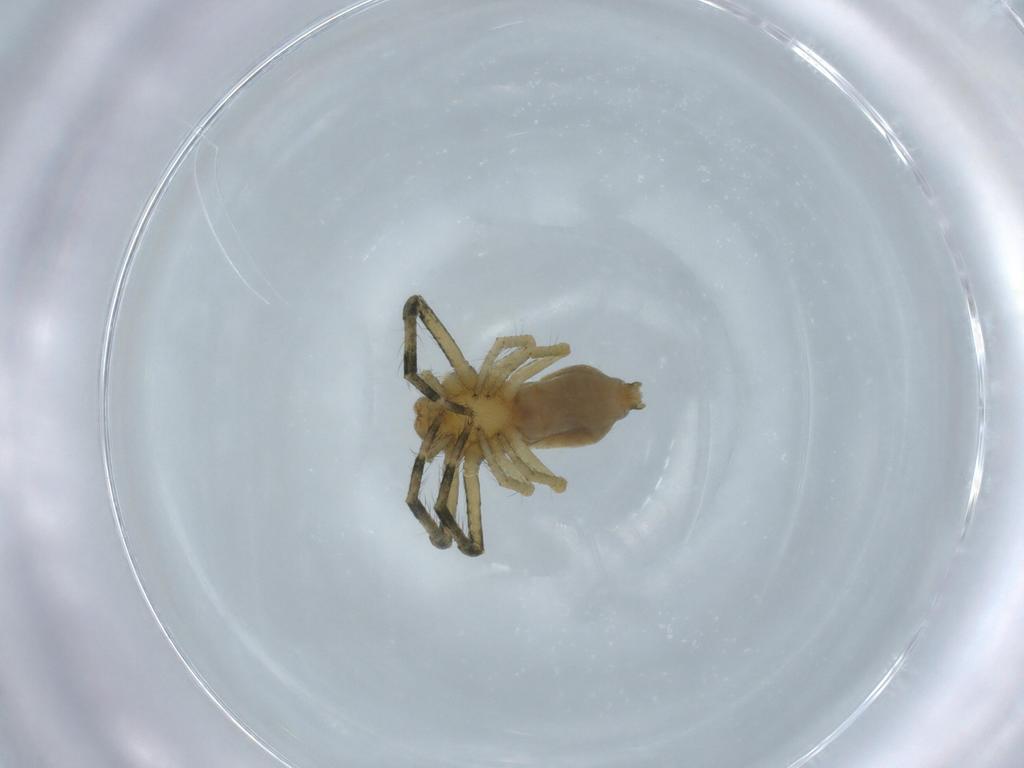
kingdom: Animalia
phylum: Arthropoda
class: Arachnida
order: Araneae
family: Thomisidae
